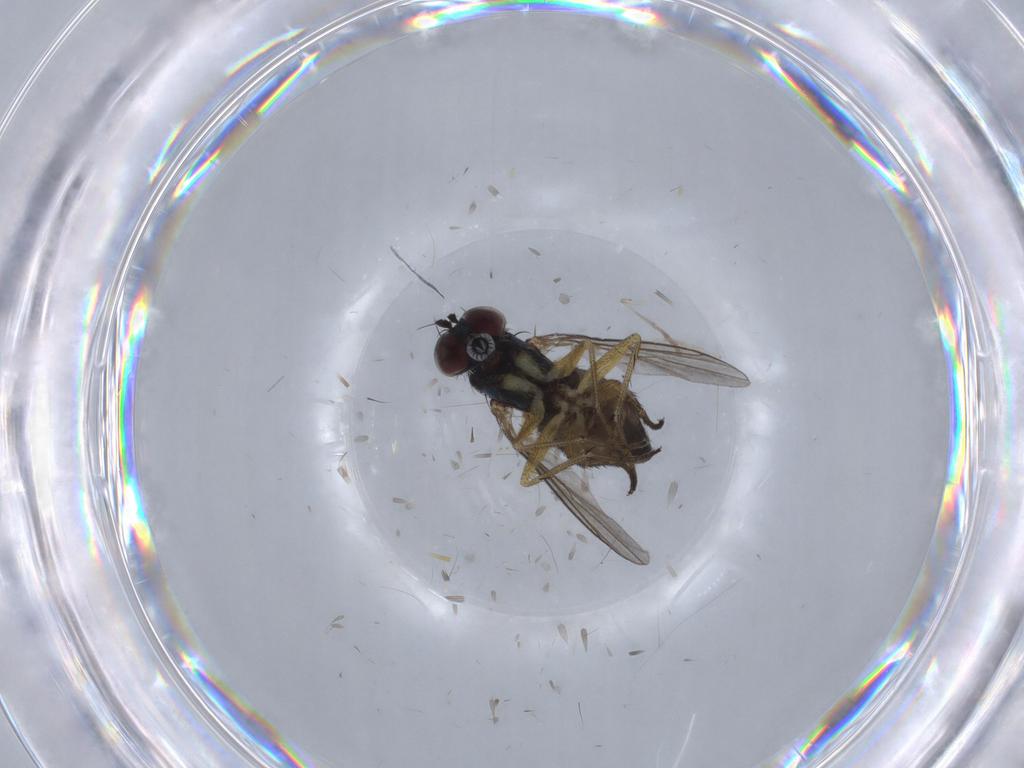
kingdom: Animalia
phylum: Arthropoda
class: Insecta
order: Diptera
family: Psychodidae
